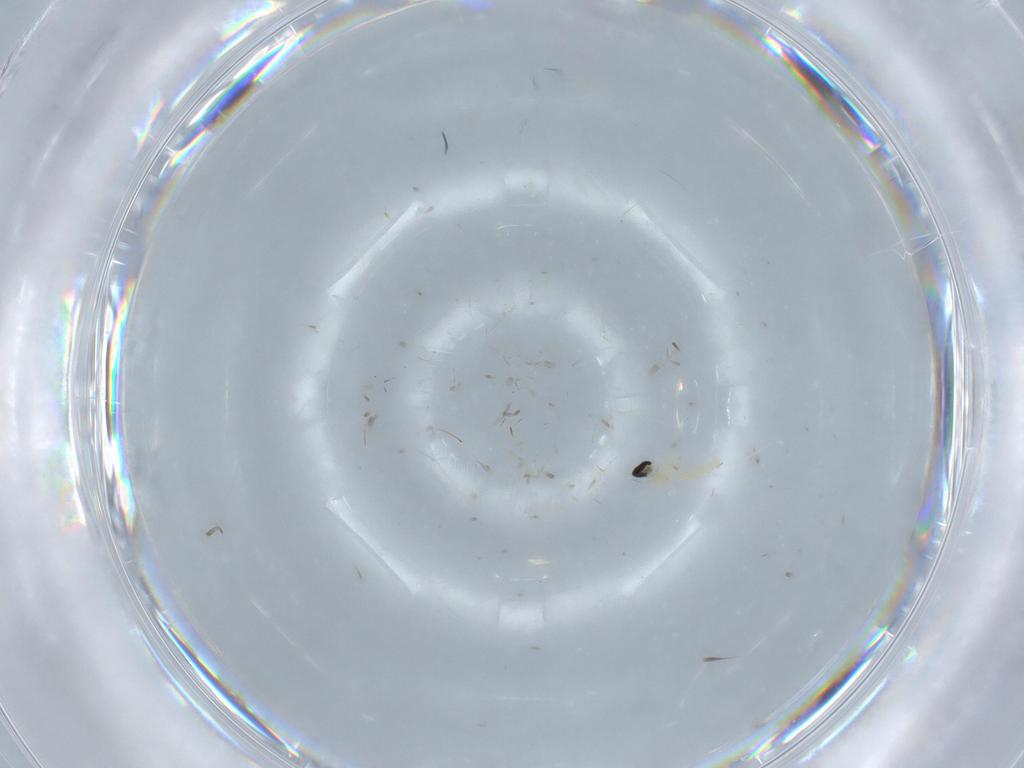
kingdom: Animalia
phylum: Arthropoda
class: Insecta
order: Diptera
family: Sciaridae
